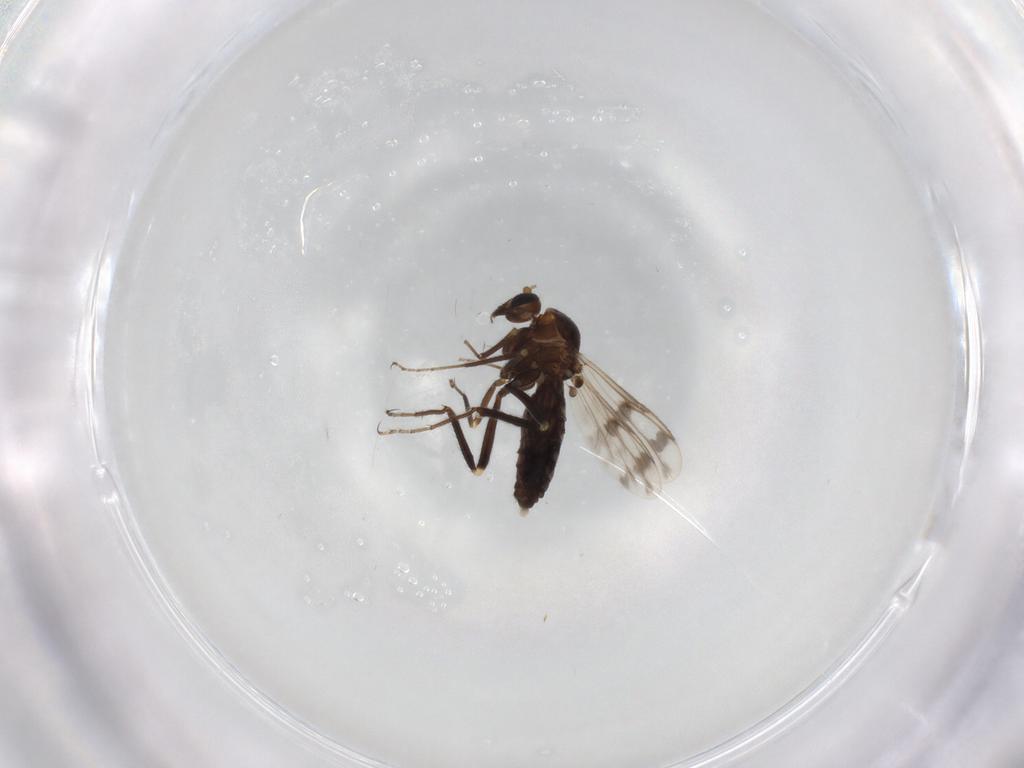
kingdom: Animalia
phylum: Arthropoda
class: Insecta
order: Diptera
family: Ceratopogonidae
